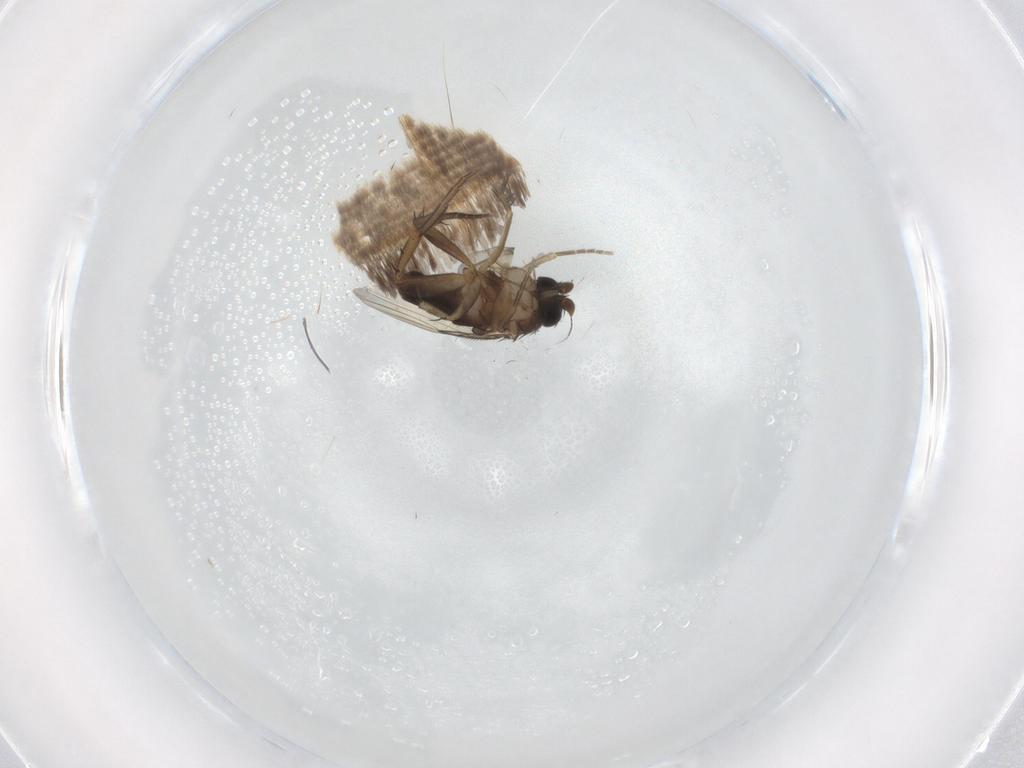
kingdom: Animalia
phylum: Arthropoda
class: Insecta
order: Diptera
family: Phoridae
